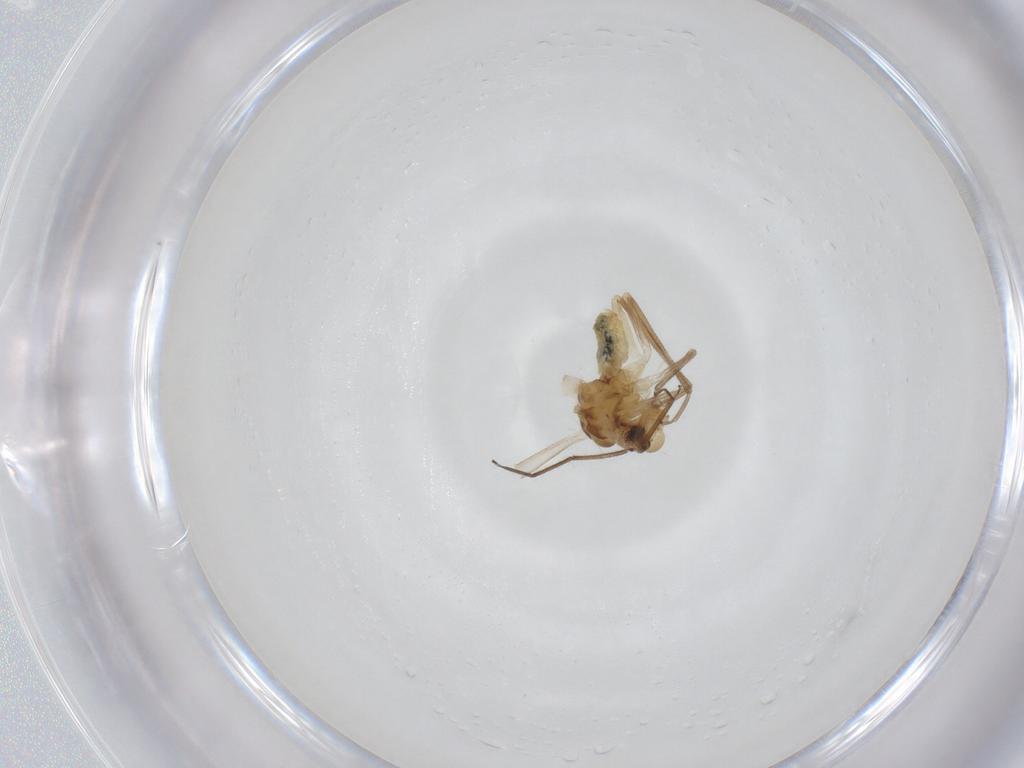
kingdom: Animalia
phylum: Arthropoda
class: Insecta
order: Psocodea
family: Caeciliusidae
